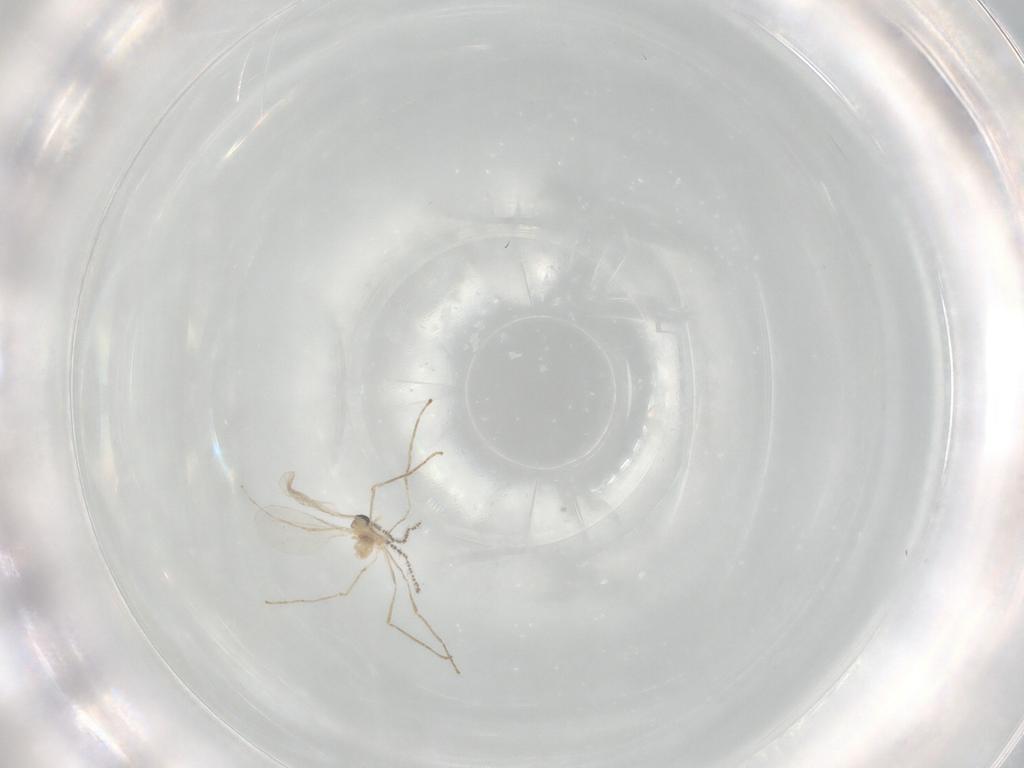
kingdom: Animalia
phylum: Arthropoda
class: Insecta
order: Diptera
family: Cecidomyiidae
